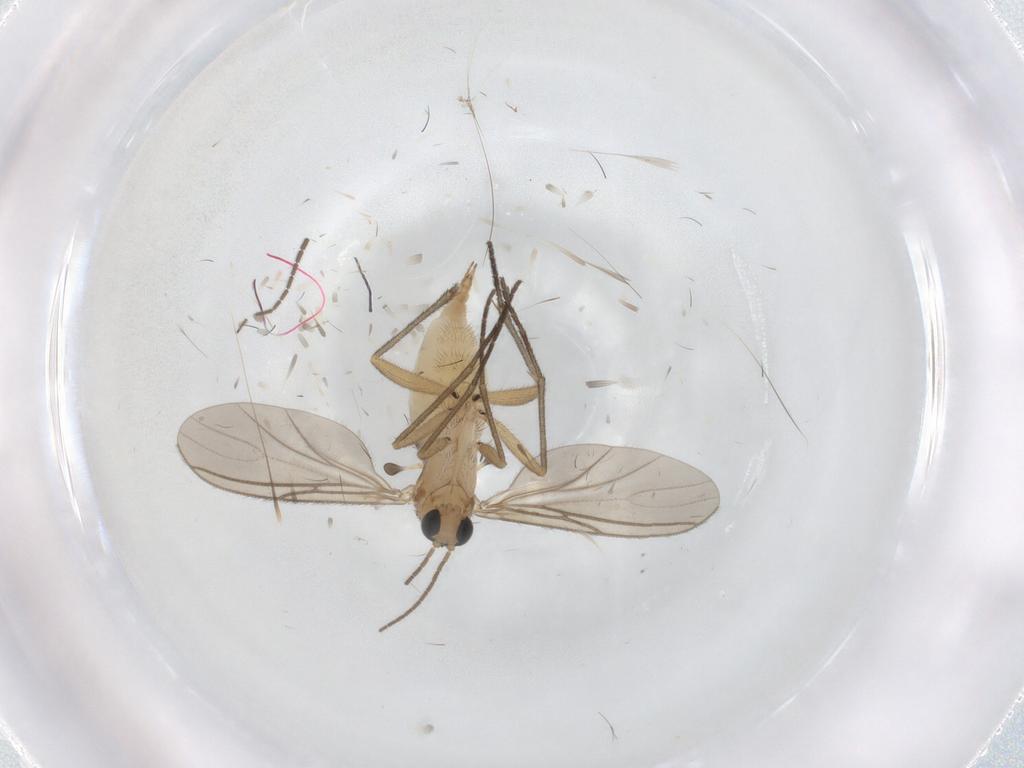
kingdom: Animalia
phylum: Arthropoda
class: Insecta
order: Diptera
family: Sciaridae
